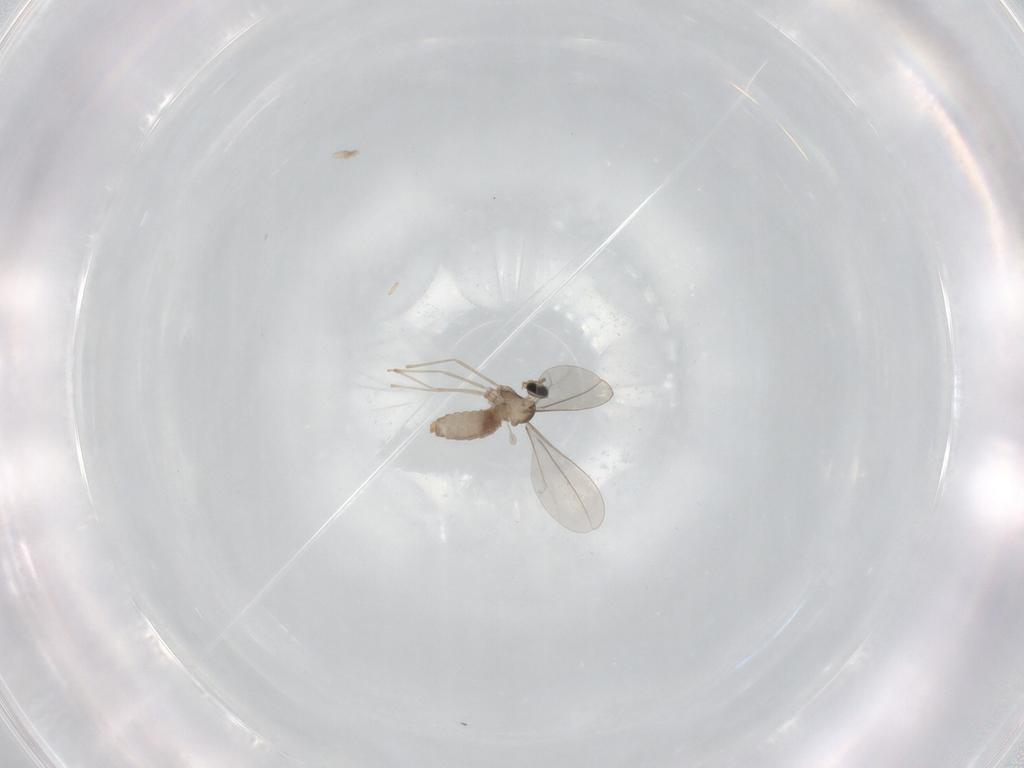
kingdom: Animalia
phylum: Arthropoda
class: Insecta
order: Diptera
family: Cecidomyiidae
